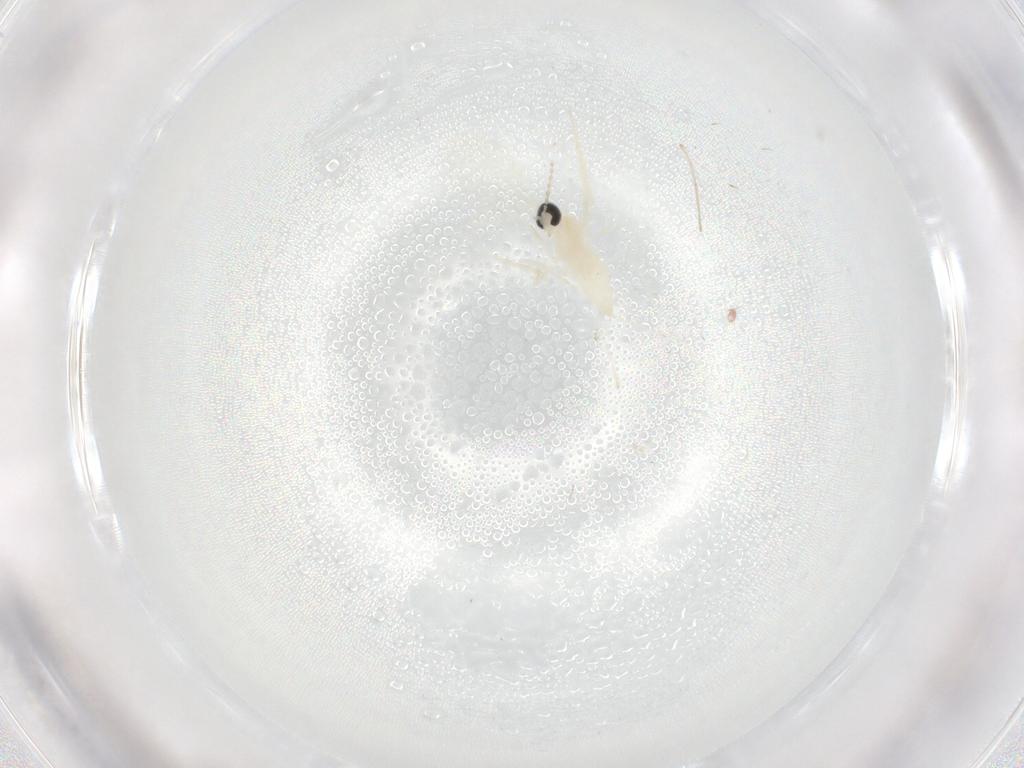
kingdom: Animalia
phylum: Arthropoda
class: Insecta
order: Diptera
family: Cecidomyiidae
